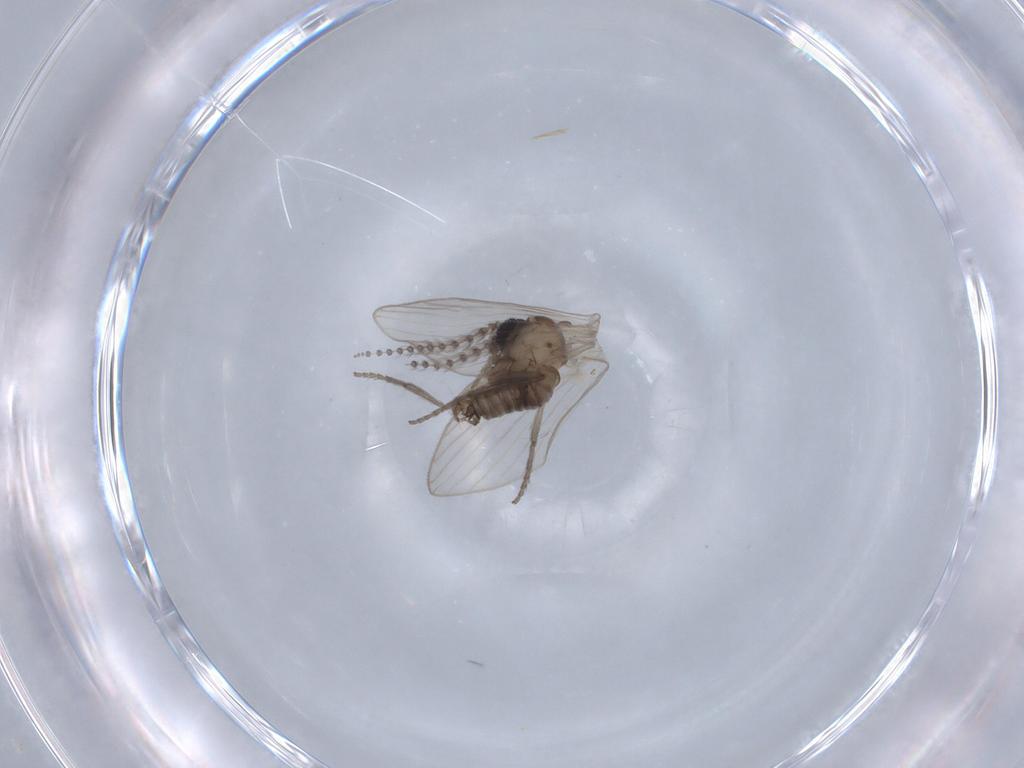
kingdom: Animalia
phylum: Arthropoda
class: Insecta
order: Diptera
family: Psychodidae
